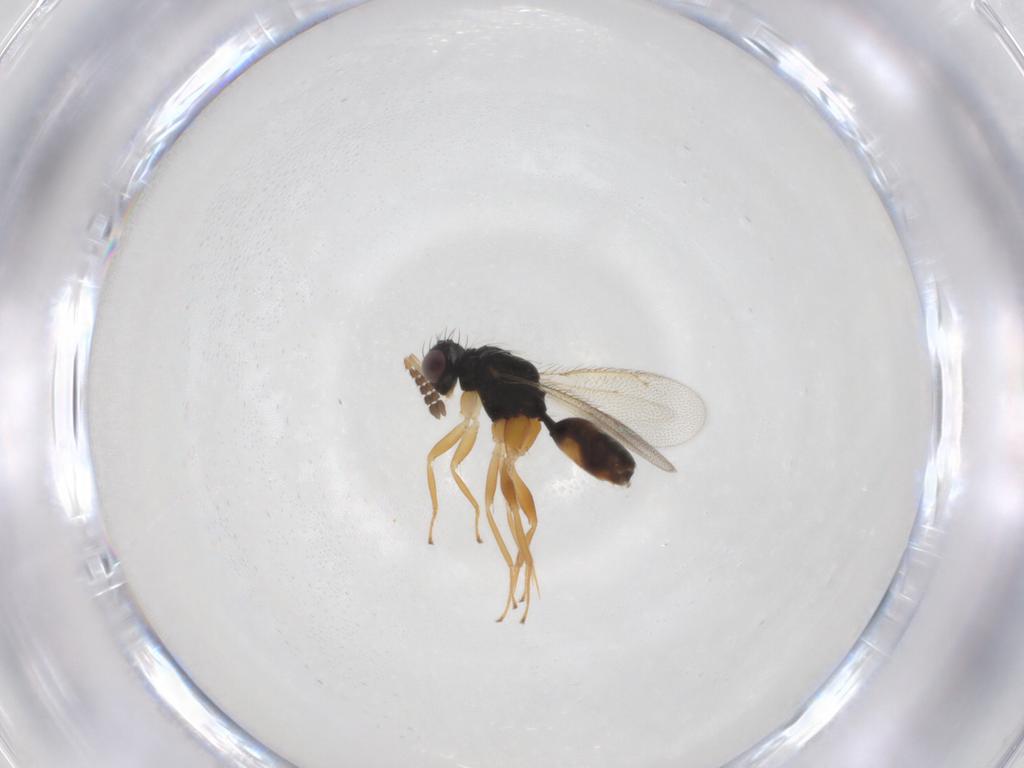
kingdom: Animalia
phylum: Arthropoda
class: Insecta
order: Hymenoptera
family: Eulophidae
